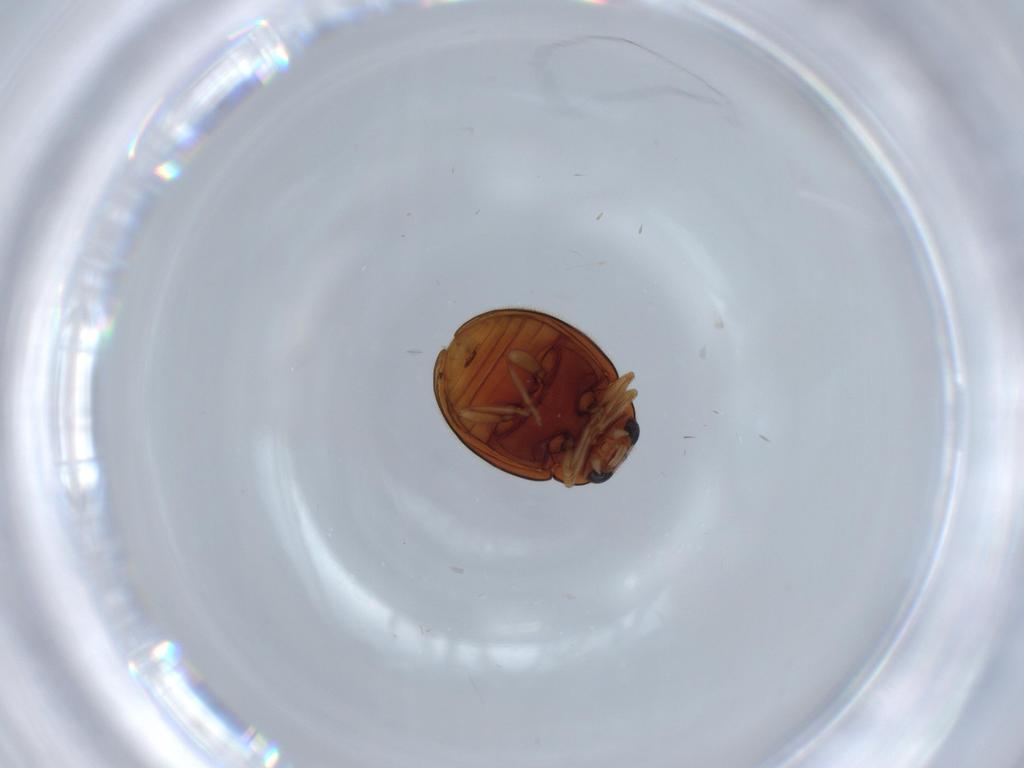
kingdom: Animalia
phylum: Arthropoda
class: Insecta
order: Coleoptera
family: Coccinellidae
